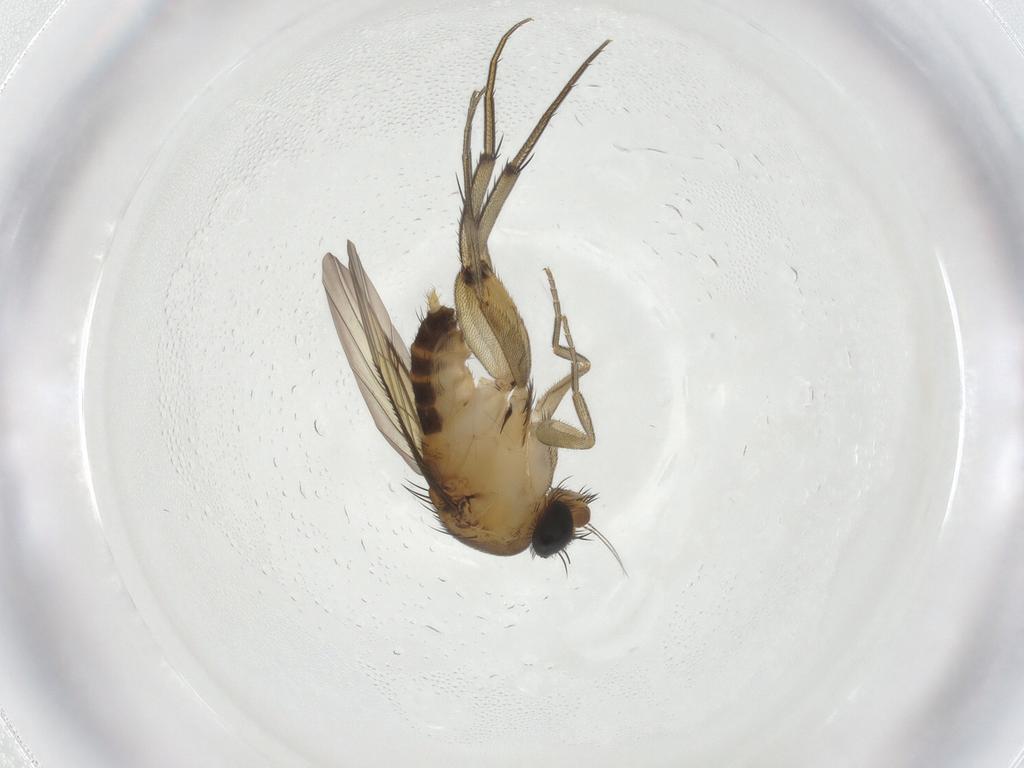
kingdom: Animalia
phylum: Arthropoda
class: Insecta
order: Diptera
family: Phoridae
